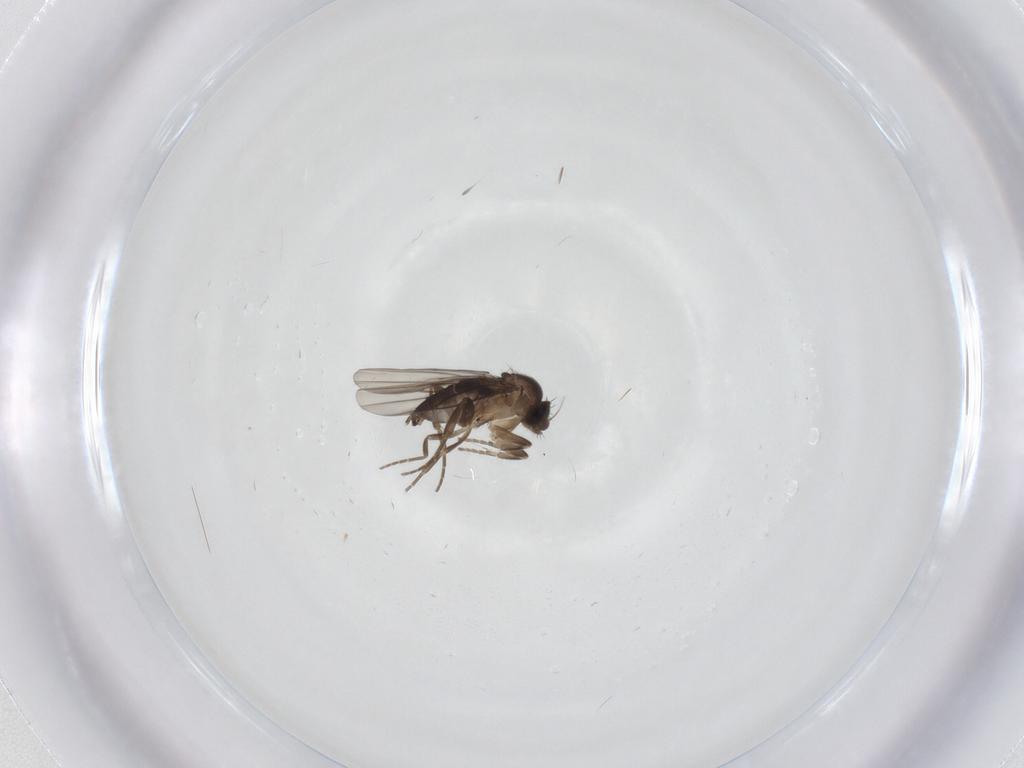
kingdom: Animalia
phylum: Arthropoda
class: Insecta
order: Diptera
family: Phoridae
